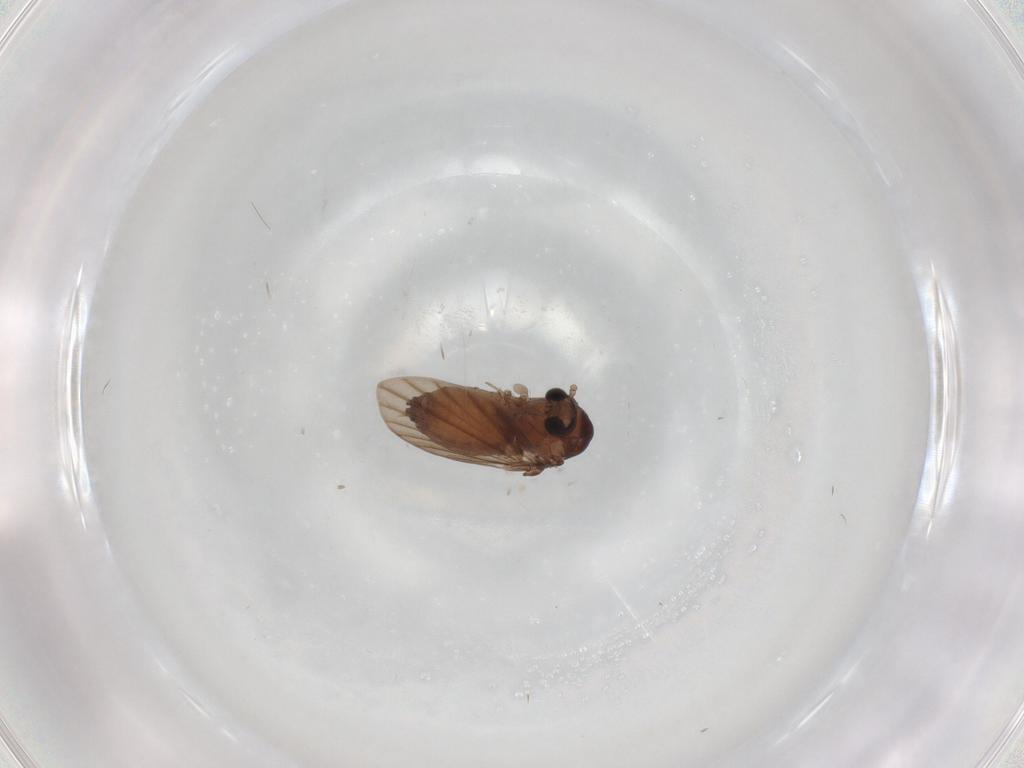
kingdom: Animalia
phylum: Arthropoda
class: Insecta
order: Diptera
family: Psychodidae
